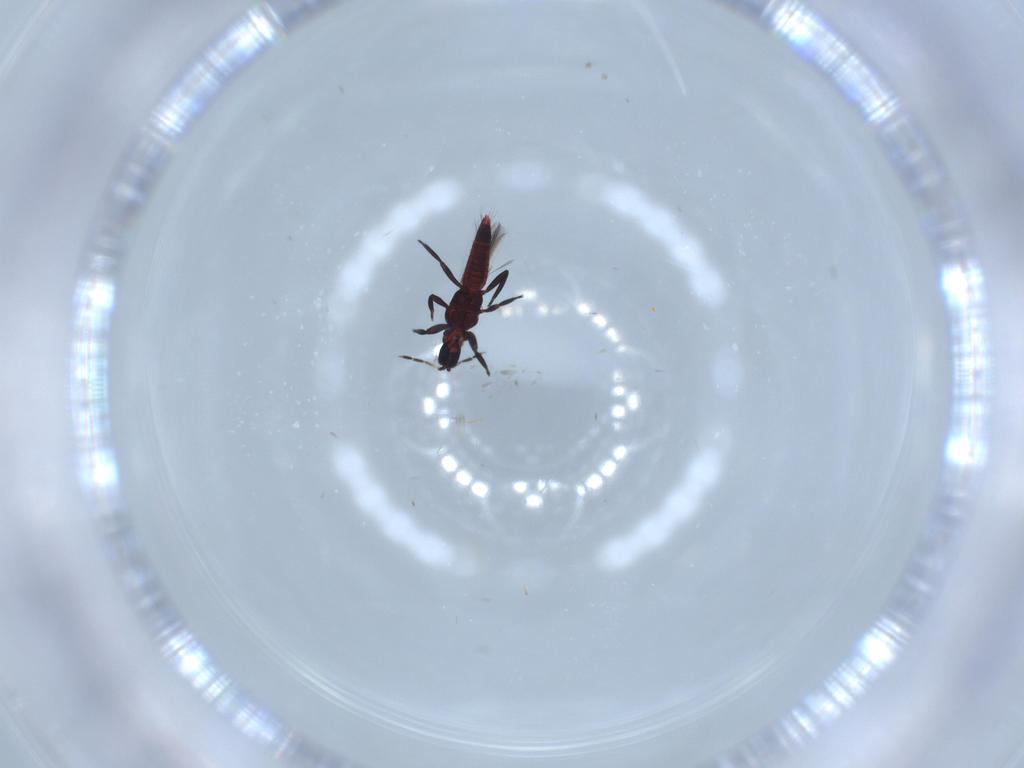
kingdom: Animalia
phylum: Arthropoda
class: Insecta
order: Thysanoptera
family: Aeolothripidae
